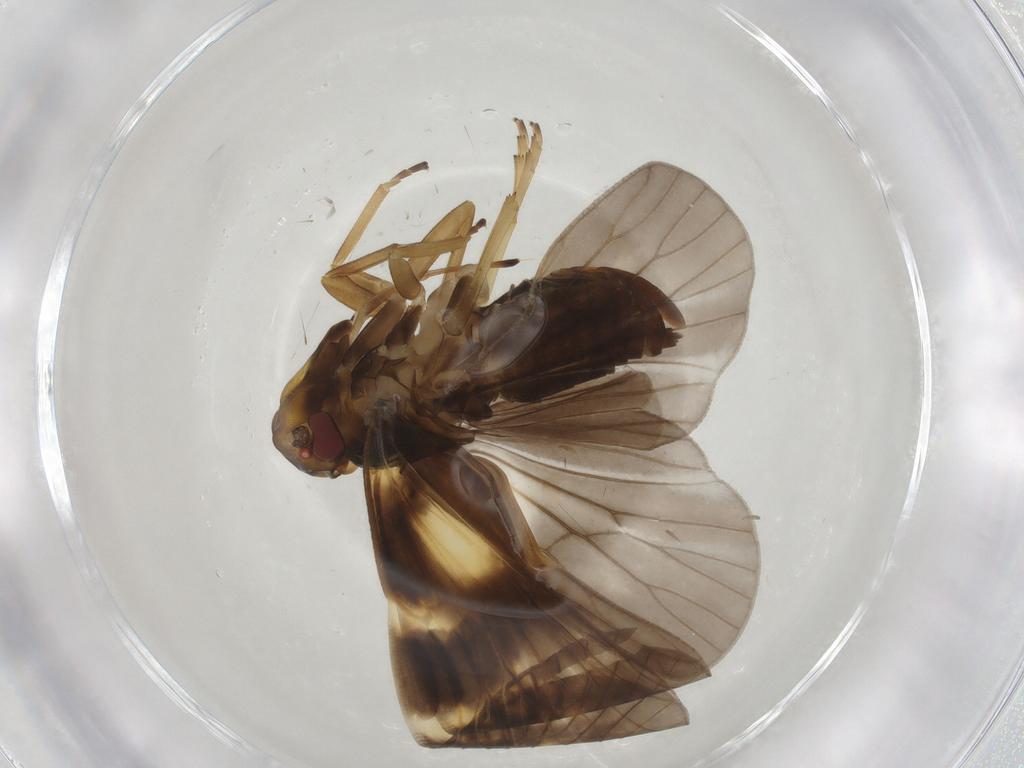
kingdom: Animalia
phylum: Arthropoda
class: Insecta
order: Hemiptera
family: Cixiidae
